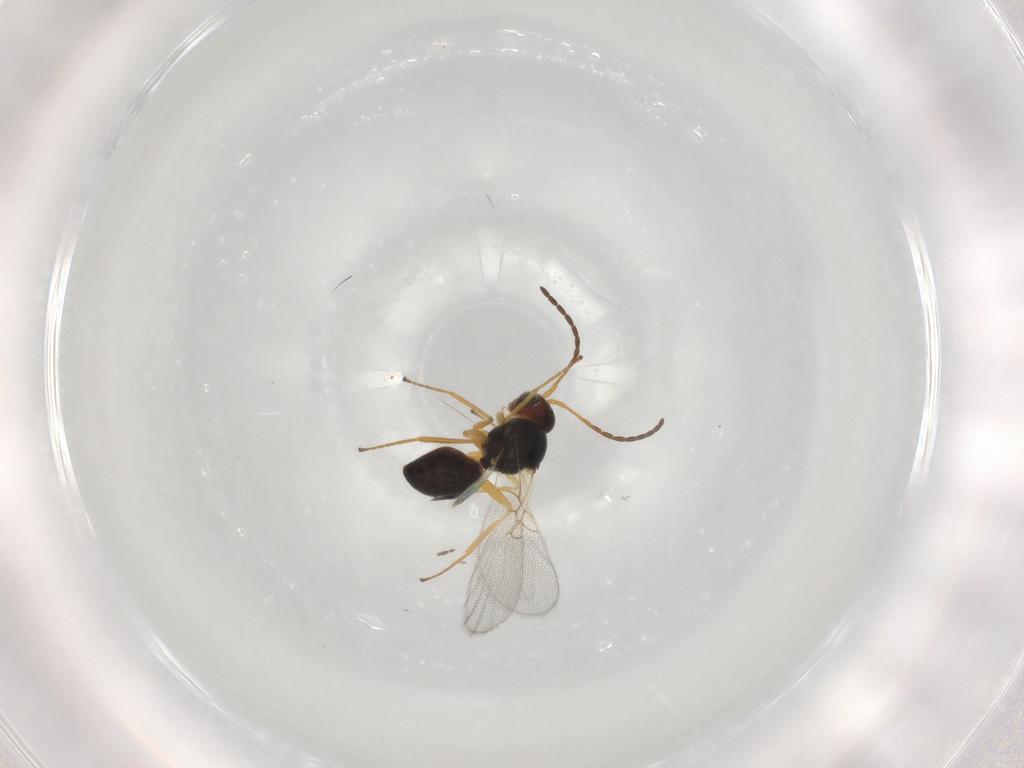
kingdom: Animalia
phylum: Arthropoda
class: Insecta
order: Hymenoptera
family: Figitidae
